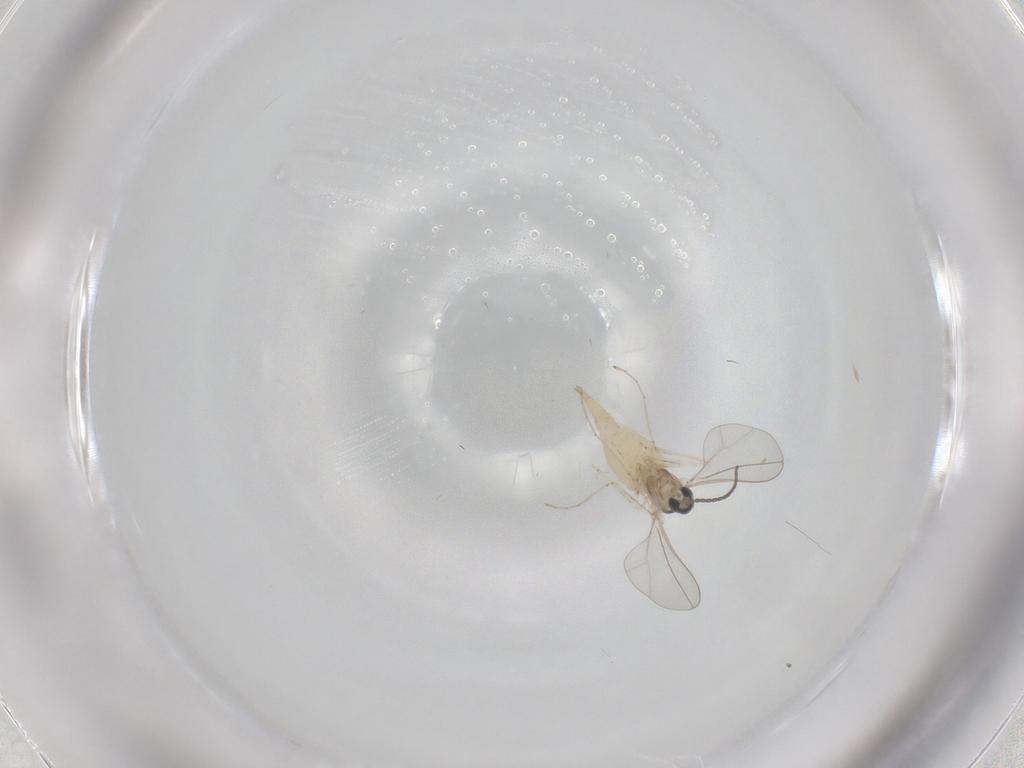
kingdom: Animalia
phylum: Arthropoda
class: Insecta
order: Diptera
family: Cecidomyiidae
